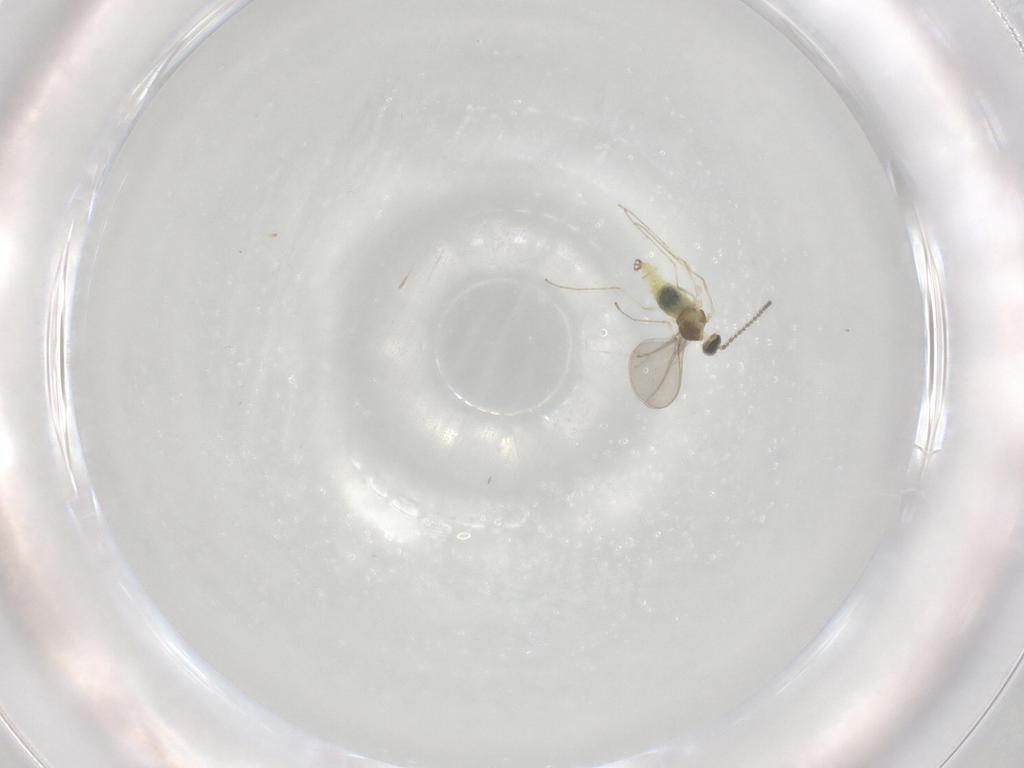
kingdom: Animalia
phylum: Arthropoda
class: Insecta
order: Diptera
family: Cecidomyiidae
